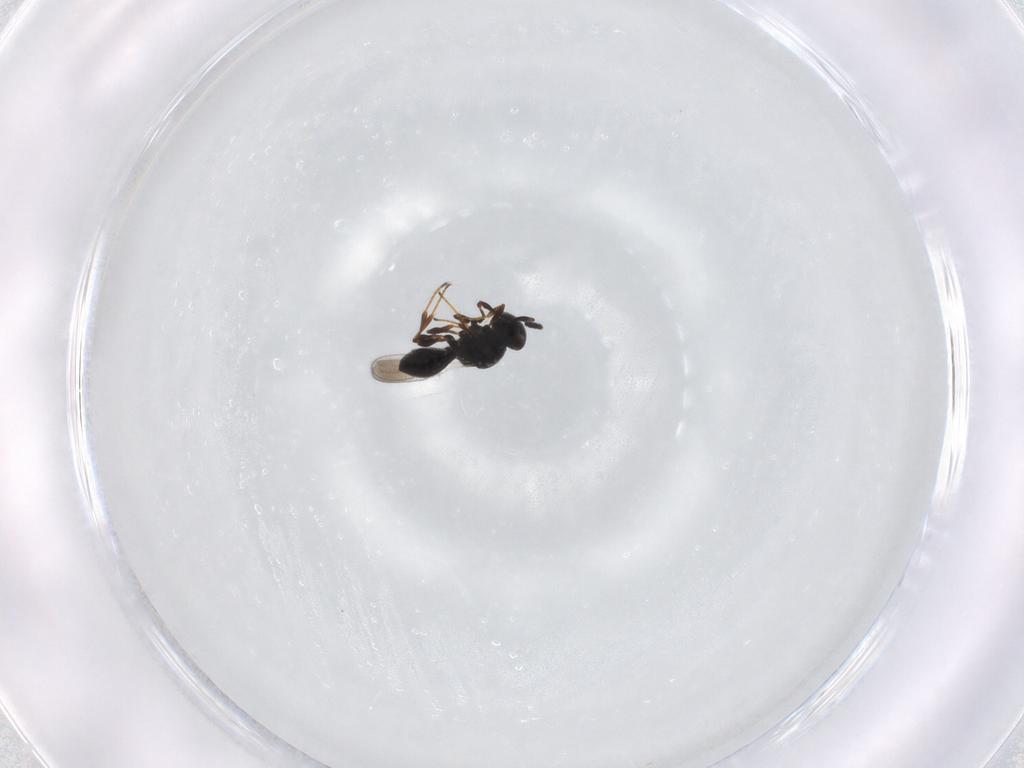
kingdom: Animalia
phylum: Arthropoda
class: Insecta
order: Hymenoptera
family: Platygastridae
